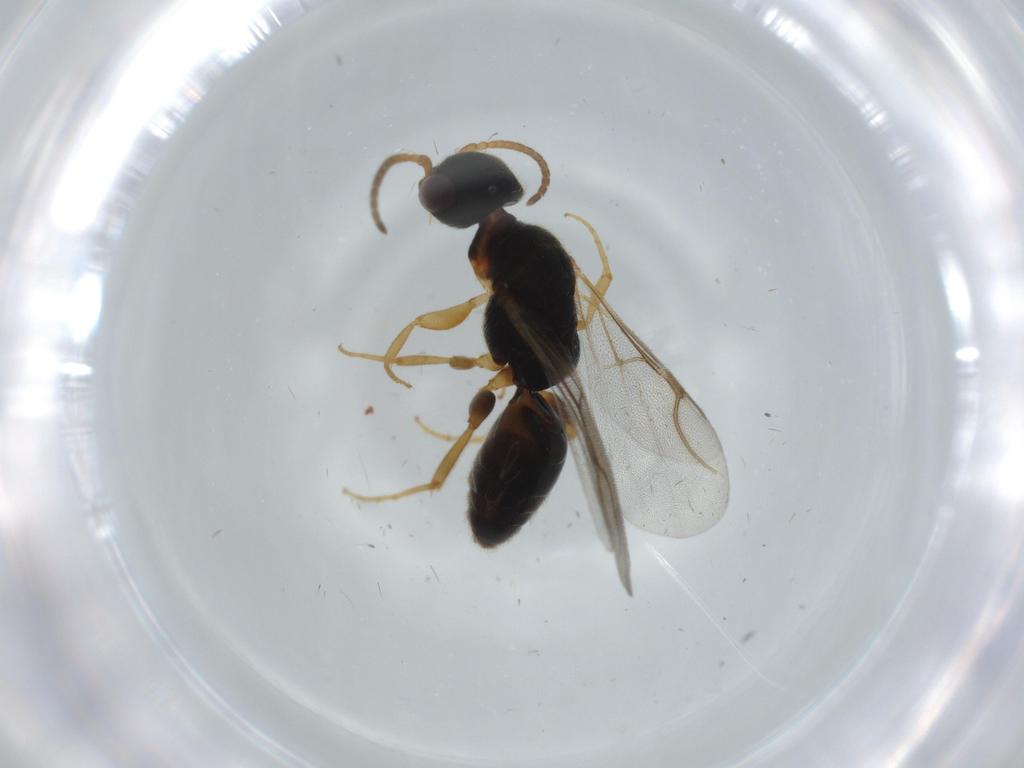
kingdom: Animalia
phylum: Arthropoda
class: Insecta
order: Hymenoptera
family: Bethylidae
